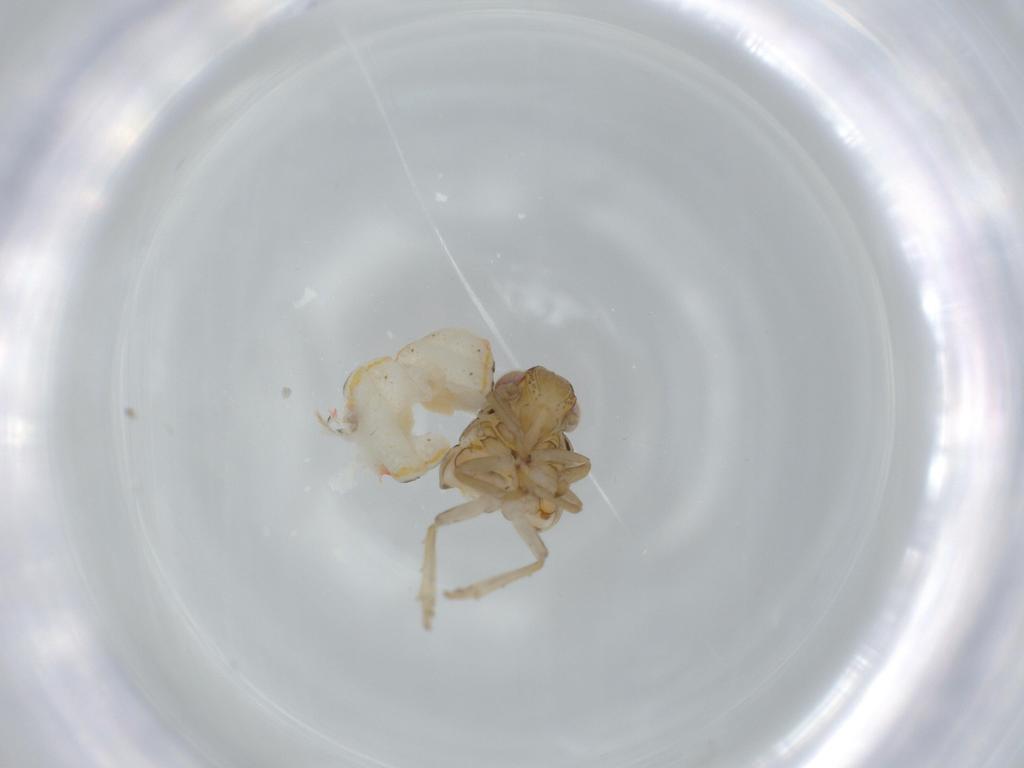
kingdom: Animalia
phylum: Arthropoda
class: Insecta
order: Hemiptera
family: Issidae
